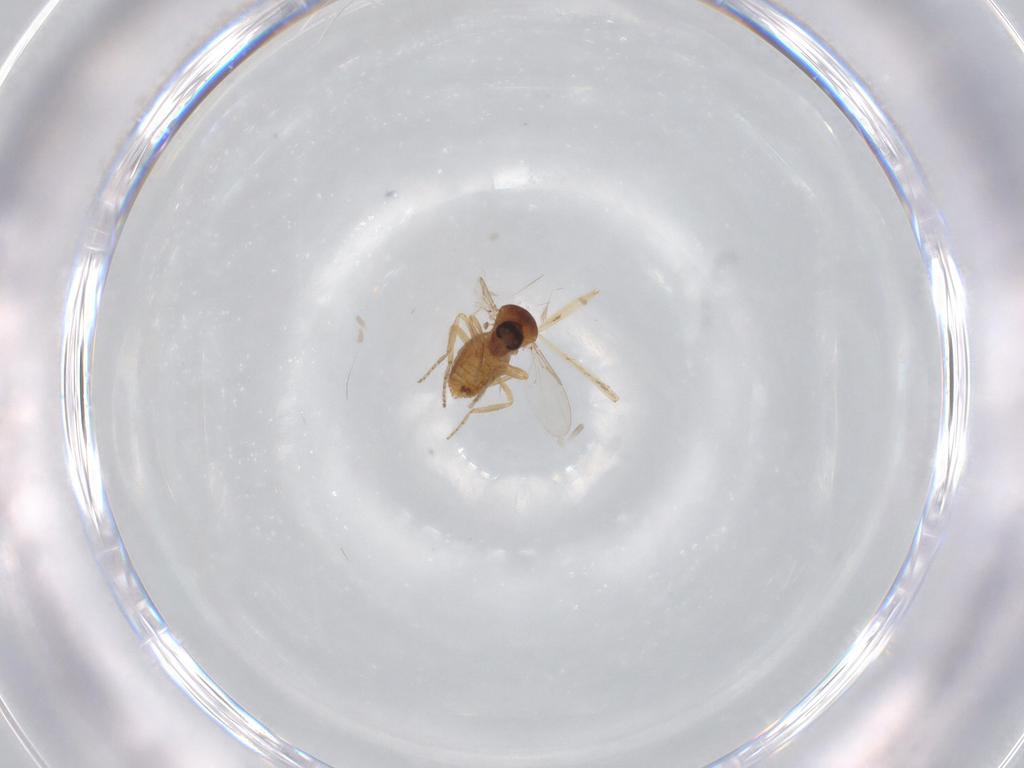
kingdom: Animalia
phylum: Arthropoda
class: Insecta
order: Diptera
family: Ceratopogonidae
